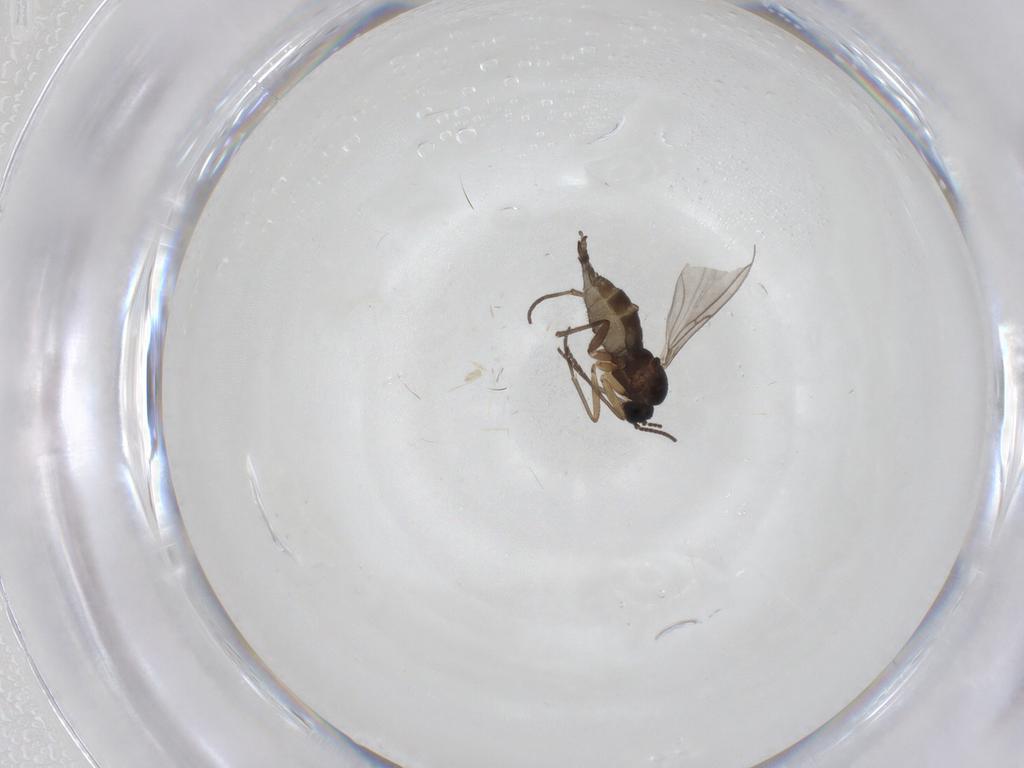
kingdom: Animalia
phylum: Arthropoda
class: Insecta
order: Diptera
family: Sciaridae
